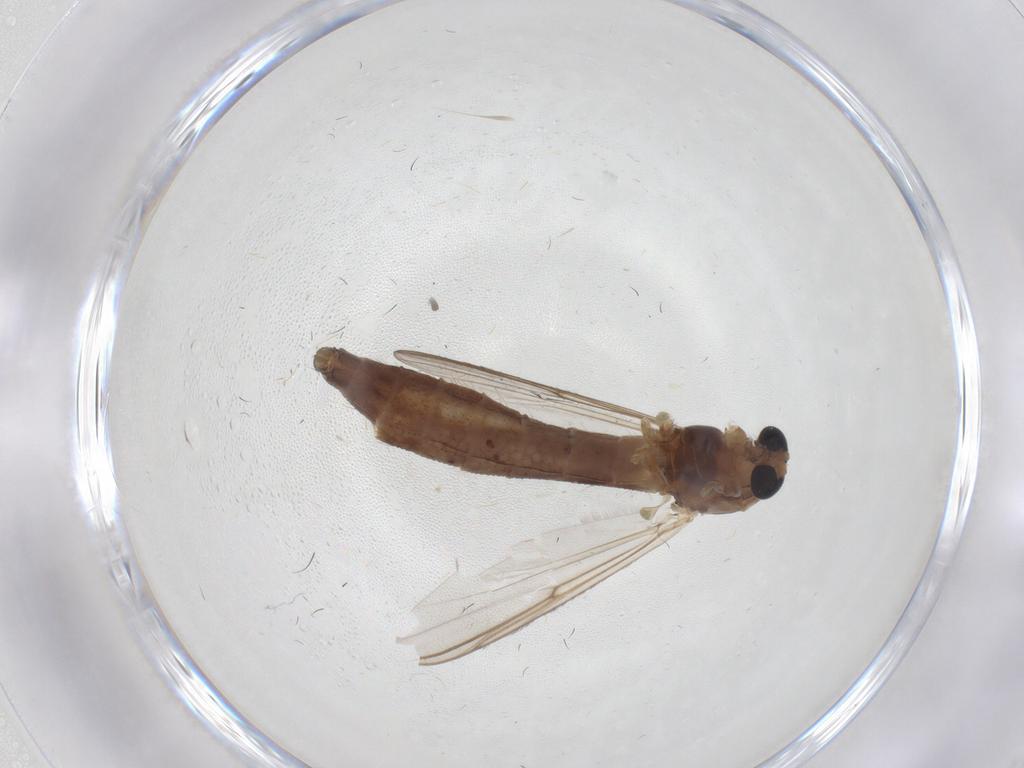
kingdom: Animalia
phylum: Arthropoda
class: Insecta
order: Diptera
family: Chironomidae
